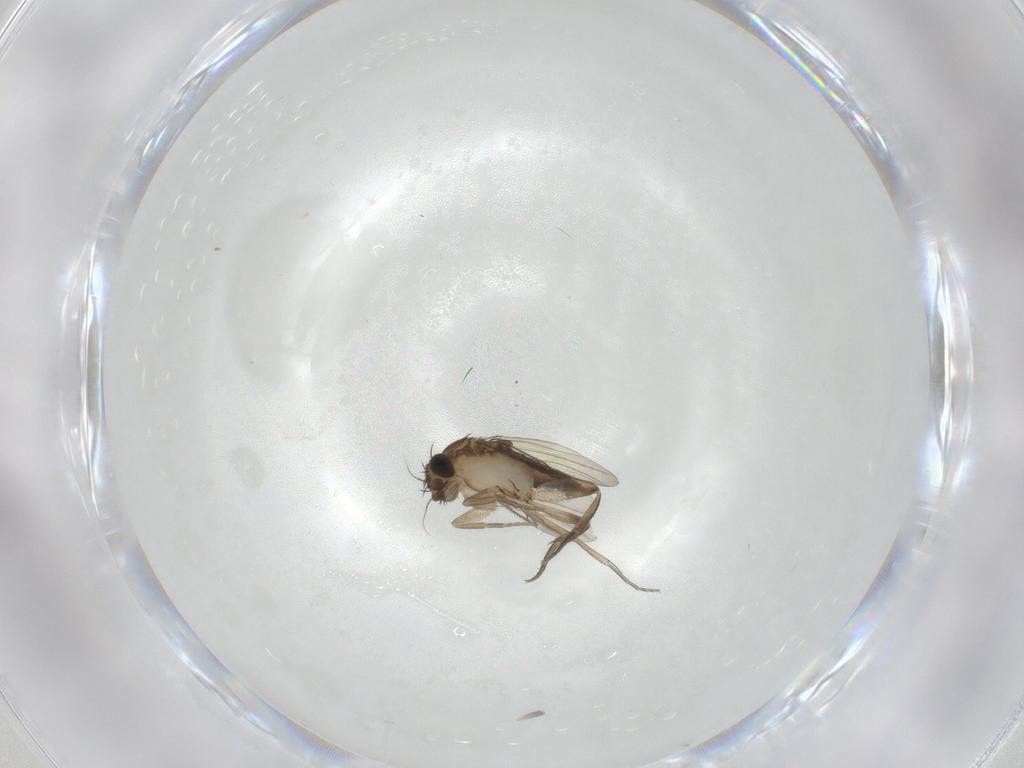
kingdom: Animalia
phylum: Arthropoda
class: Insecta
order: Diptera
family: Phoridae
